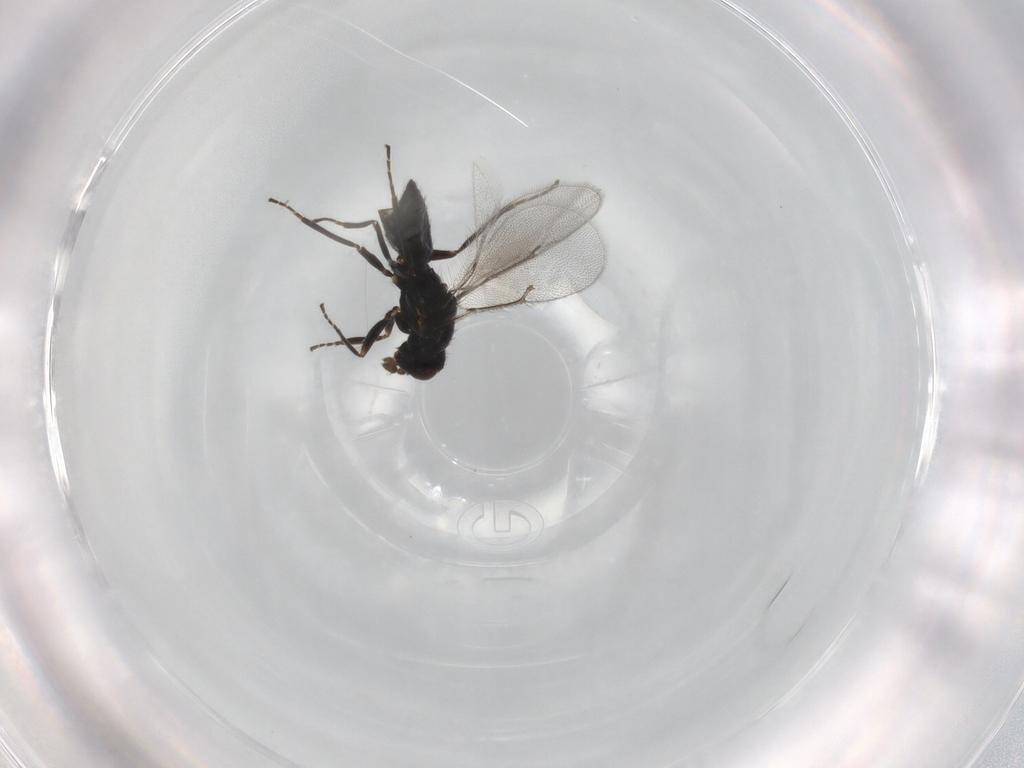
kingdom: Animalia
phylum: Arthropoda
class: Insecta
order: Hymenoptera
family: Eulophidae
